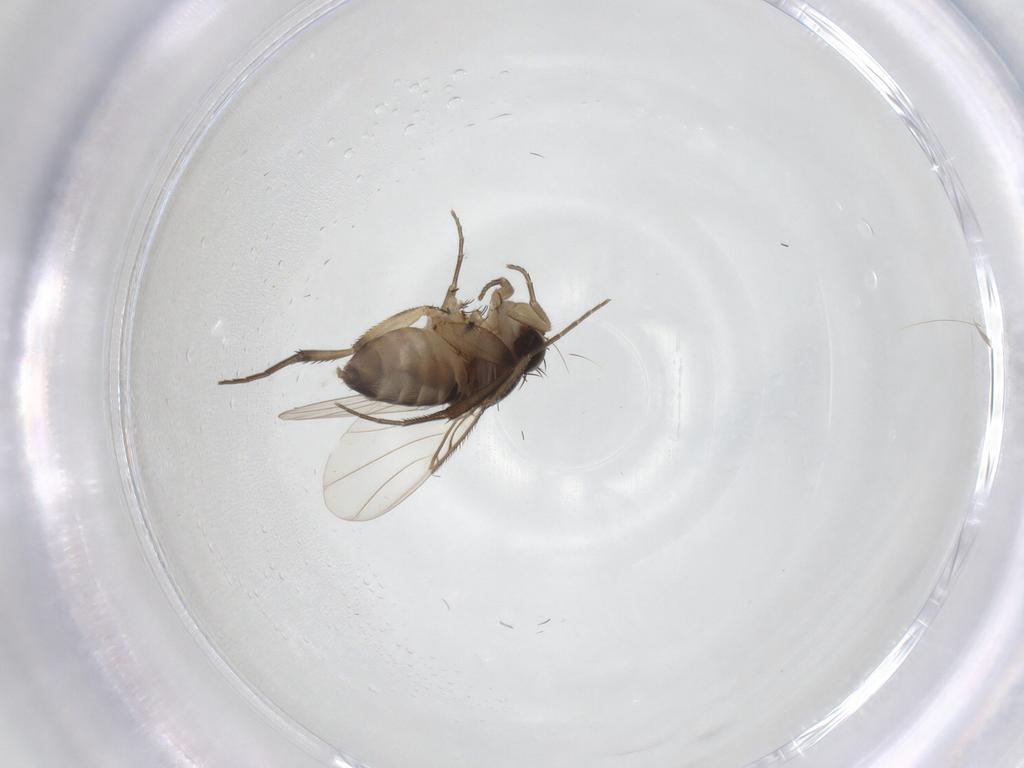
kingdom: Animalia
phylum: Arthropoda
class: Insecta
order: Diptera
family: Phoridae
